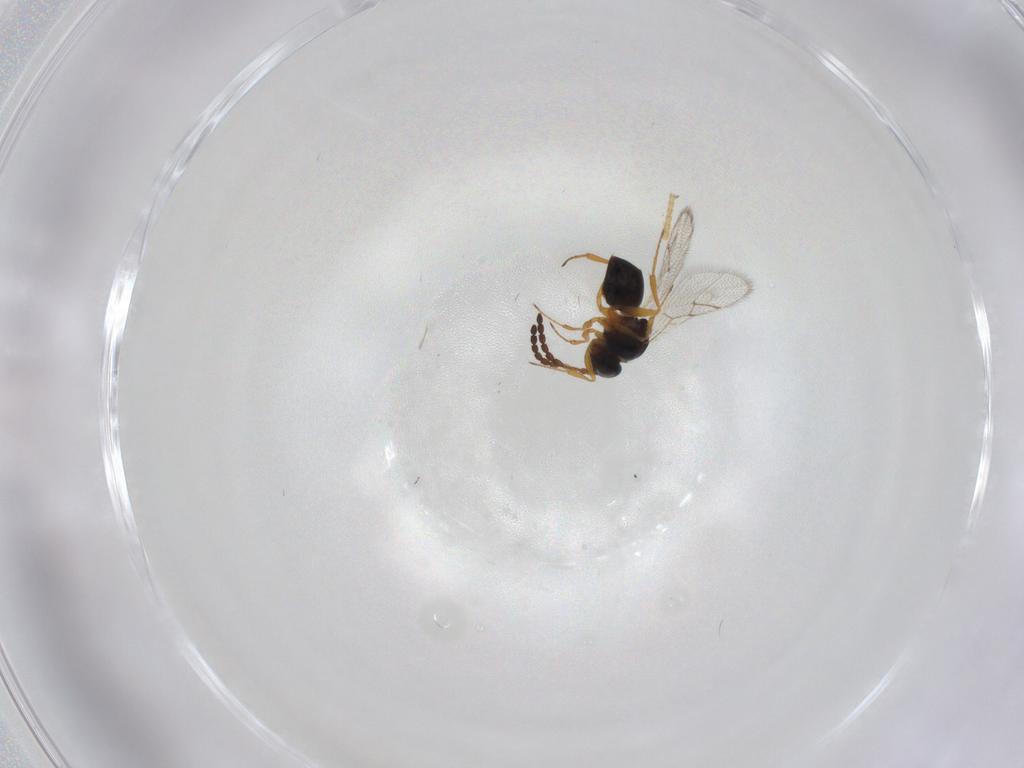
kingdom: Animalia
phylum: Arthropoda
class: Insecta
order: Hymenoptera
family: Figitidae
